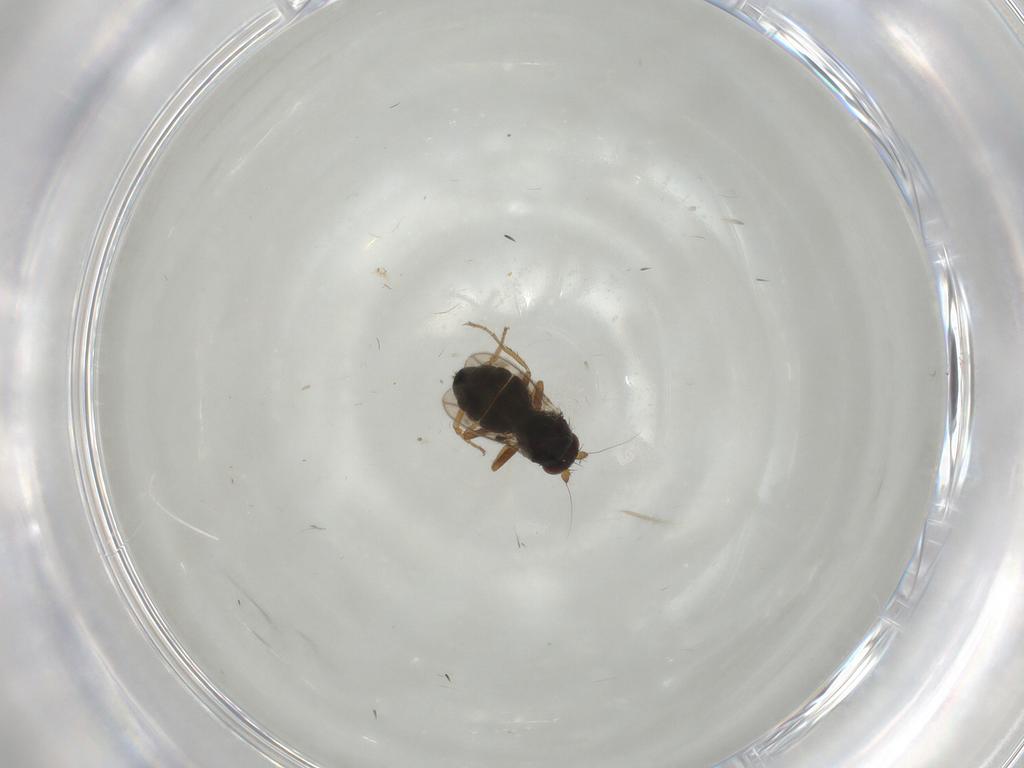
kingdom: Animalia
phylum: Arthropoda
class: Insecta
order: Diptera
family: Sphaeroceridae
